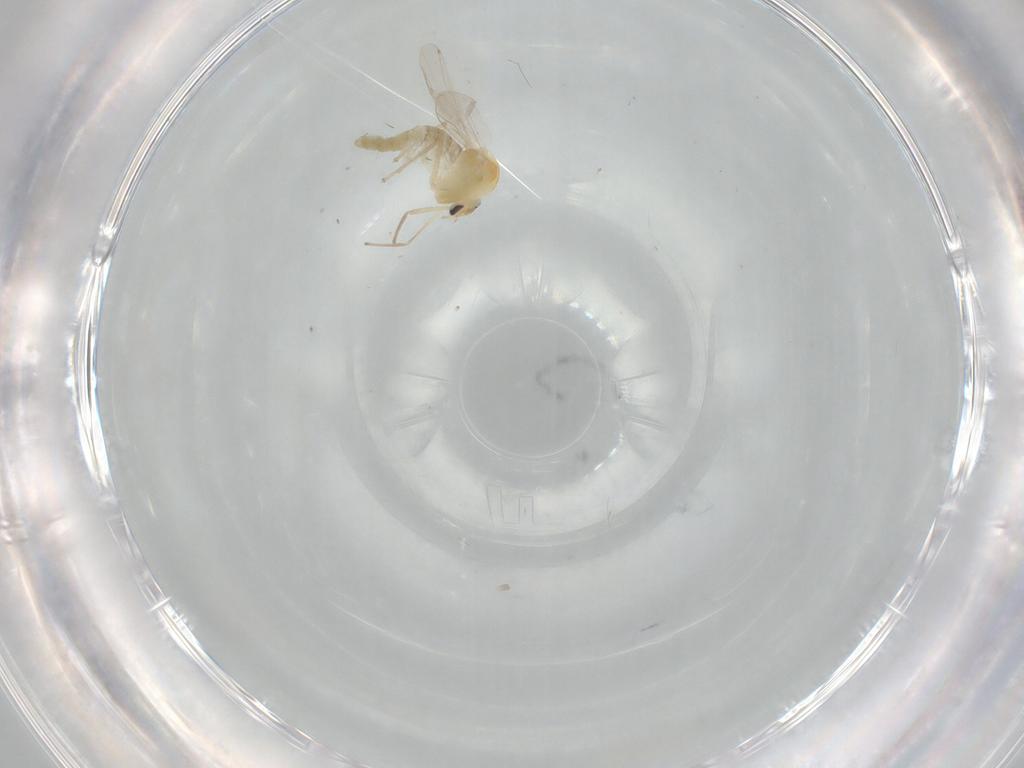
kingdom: Animalia
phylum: Arthropoda
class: Insecta
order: Diptera
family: Chironomidae
